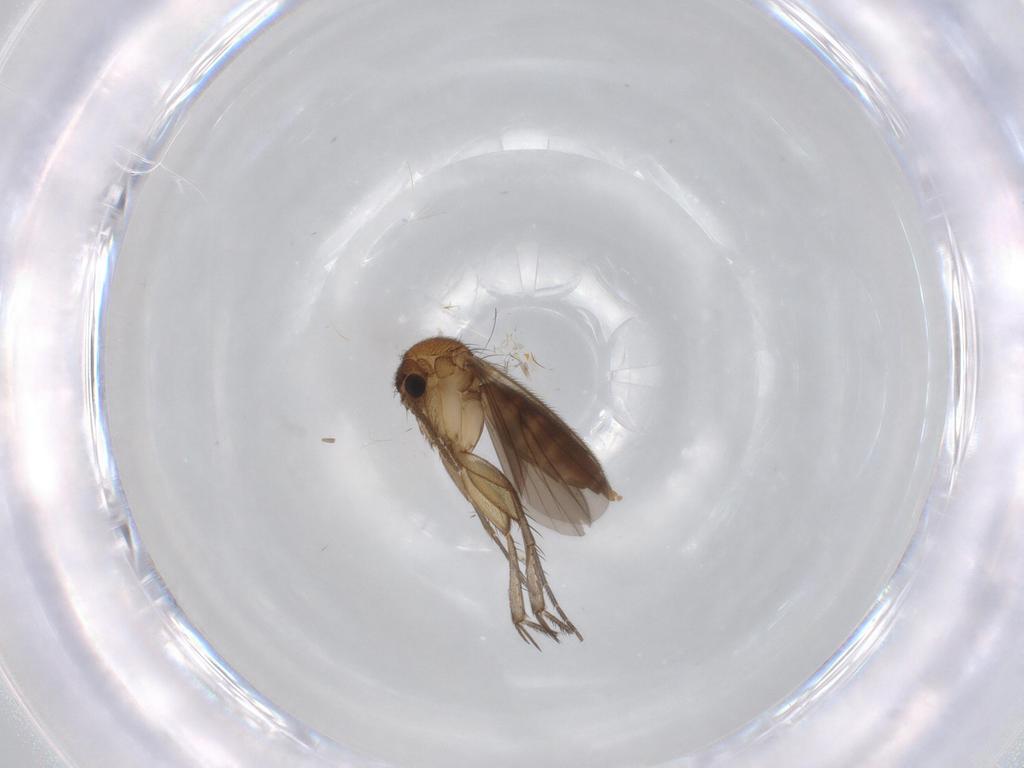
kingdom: Animalia
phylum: Arthropoda
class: Insecta
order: Diptera
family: Mycetophilidae
